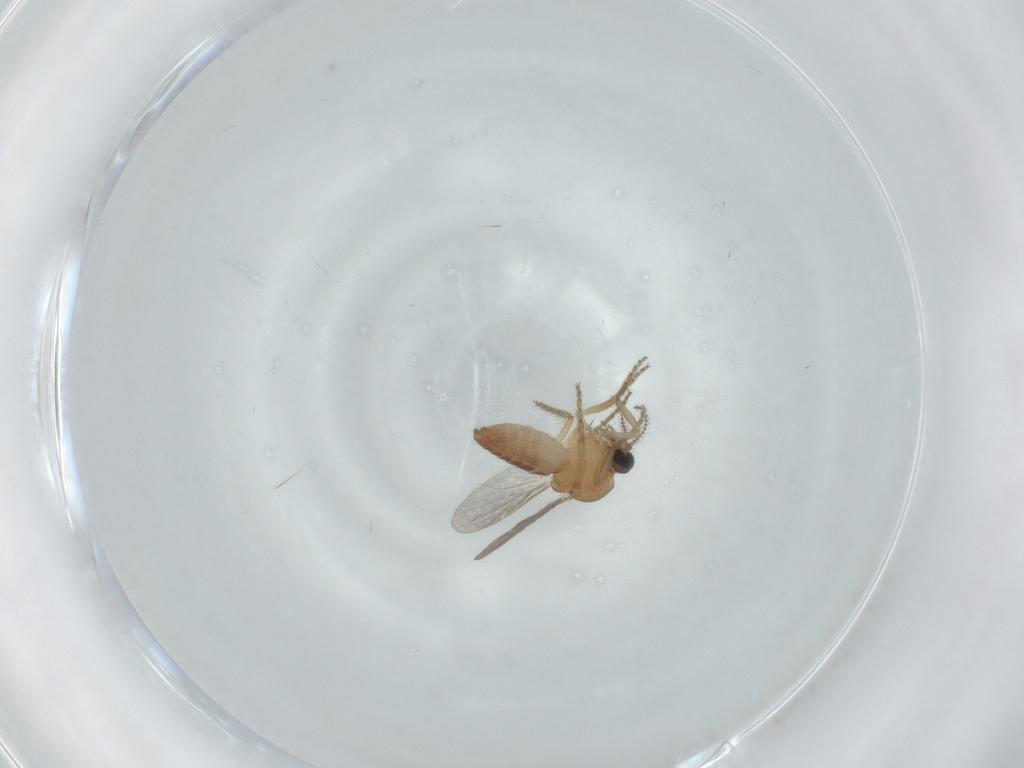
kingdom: Animalia
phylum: Arthropoda
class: Insecta
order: Diptera
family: Ceratopogonidae
